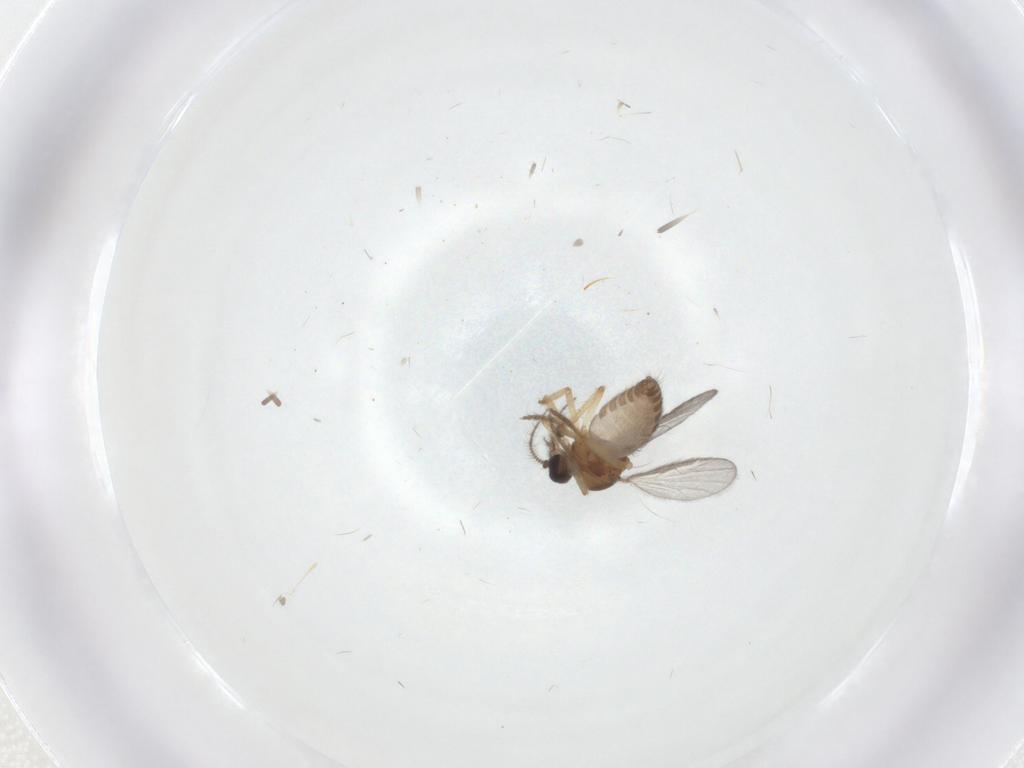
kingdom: Animalia
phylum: Arthropoda
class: Insecta
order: Diptera
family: Ceratopogonidae
